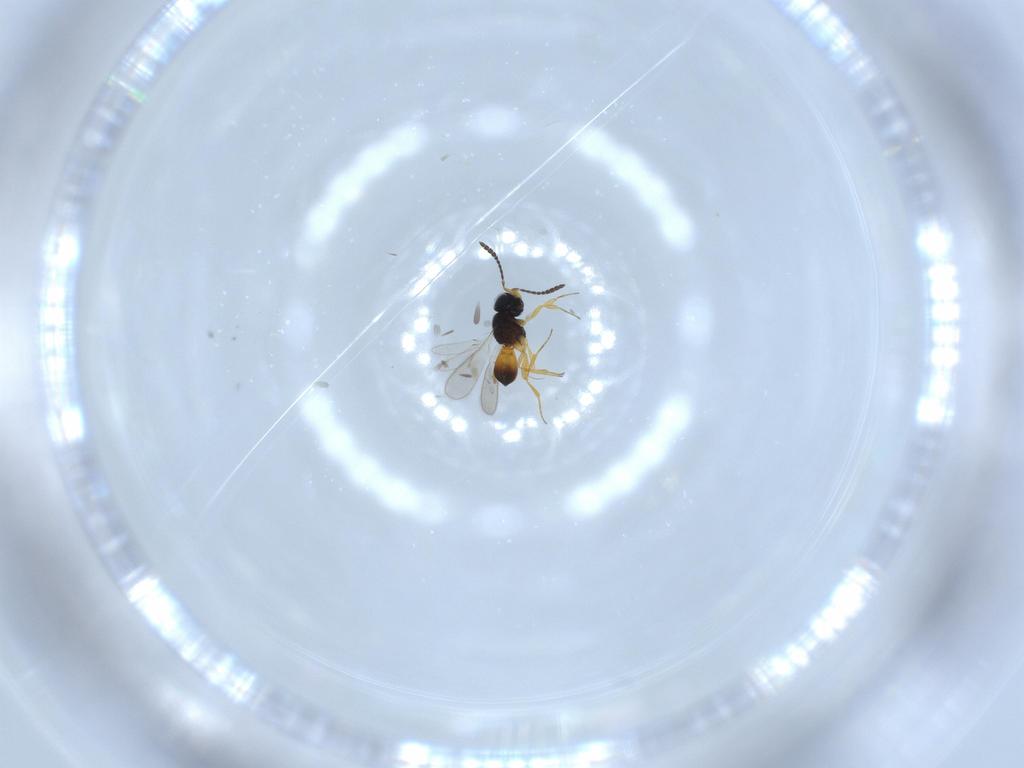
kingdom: Animalia
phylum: Arthropoda
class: Insecta
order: Hymenoptera
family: Scelionidae
